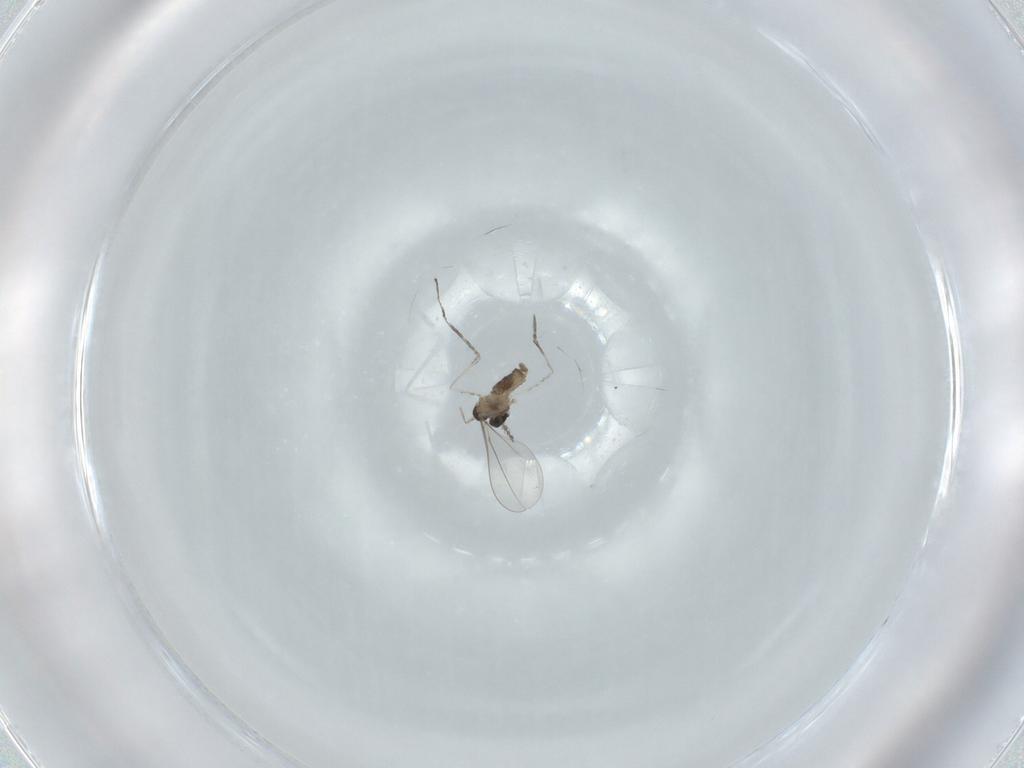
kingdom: Animalia
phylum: Arthropoda
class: Insecta
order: Diptera
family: Cecidomyiidae
